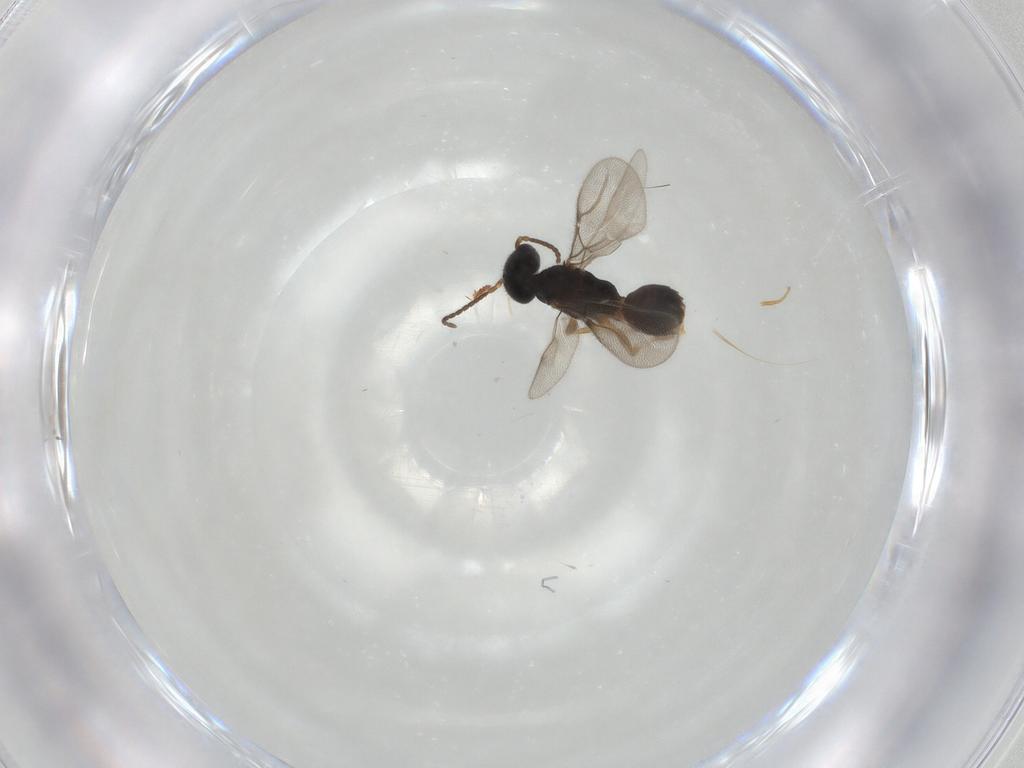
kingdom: Animalia
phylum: Arthropoda
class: Insecta
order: Hymenoptera
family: Bethylidae
